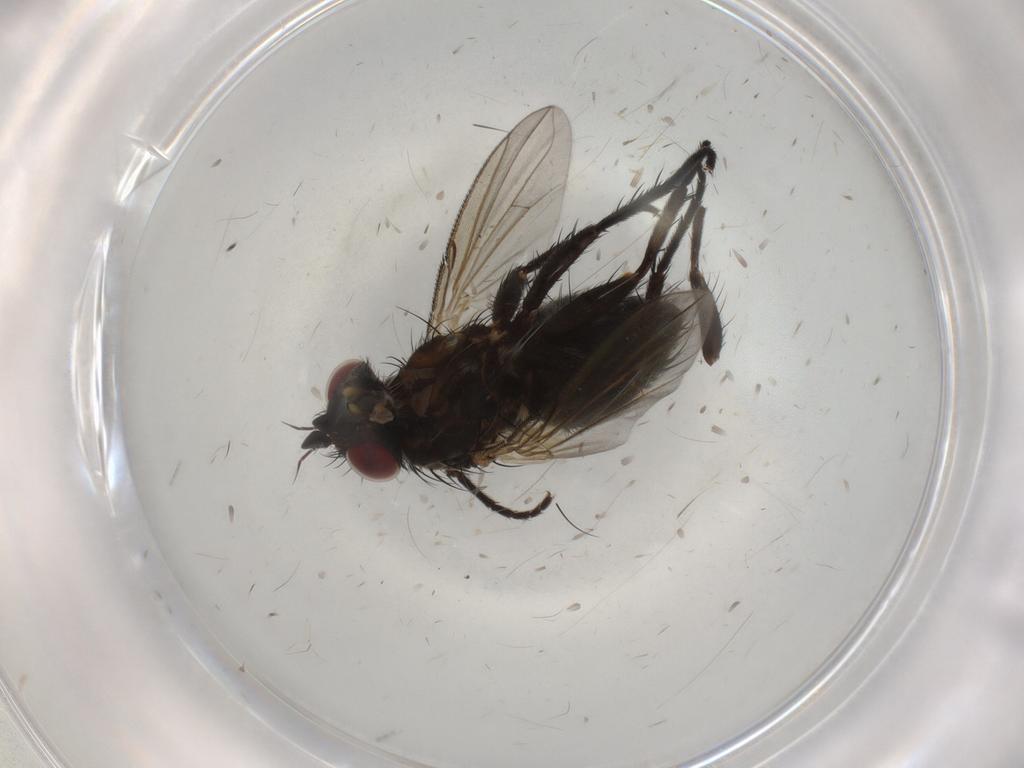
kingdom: Animalia
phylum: Arthropoda
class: Insecta
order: Diptera
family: Tachinidae
